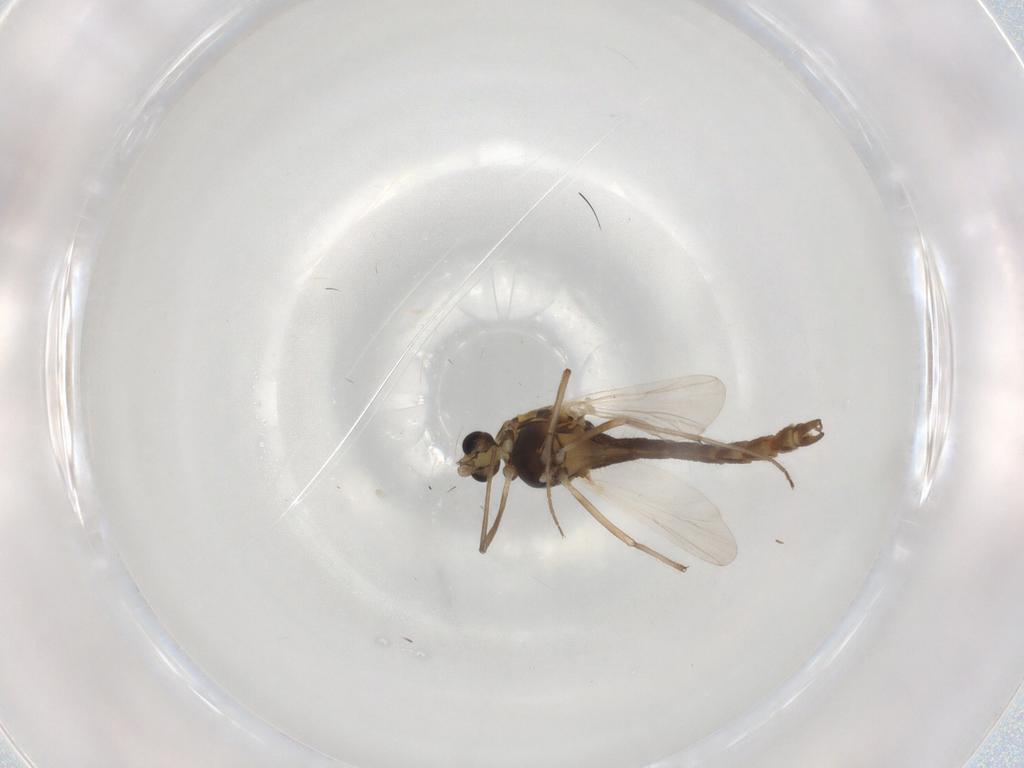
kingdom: Animalia
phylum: Arthropoda
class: Insecta
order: Diptera
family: Chironomidae
